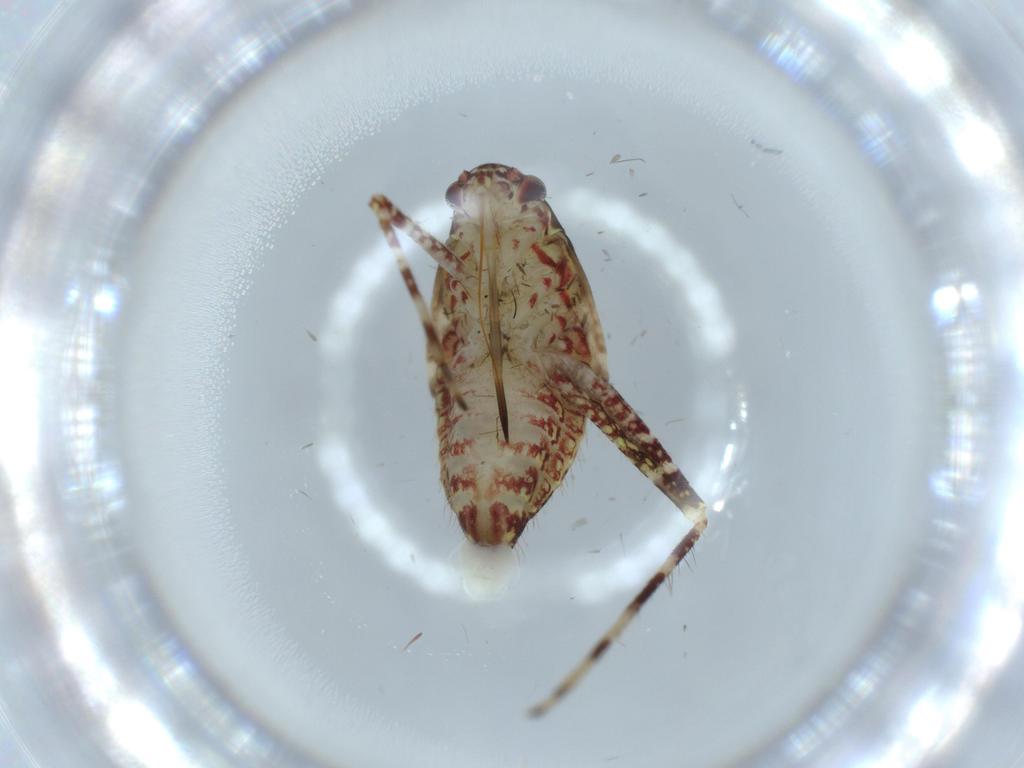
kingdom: Animalia
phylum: Arthropoda
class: Insecta
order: Hemiptera
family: Miridae
